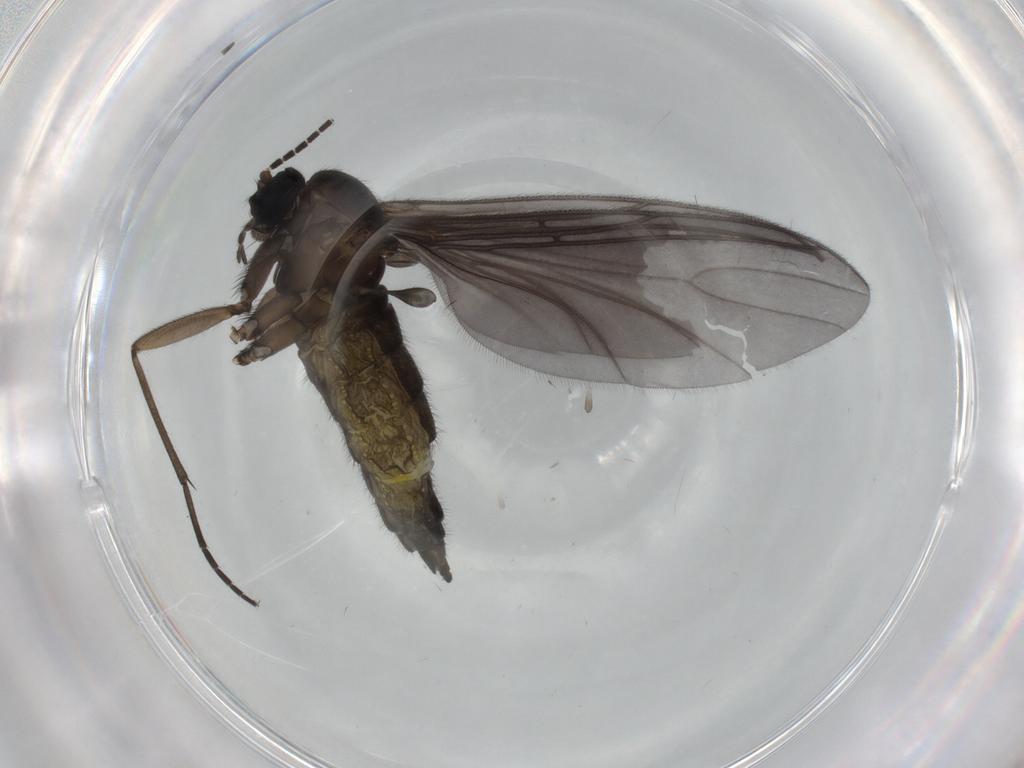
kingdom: Animalia
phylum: Arthropoda
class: Insecta
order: Diptera
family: Sciaridae
